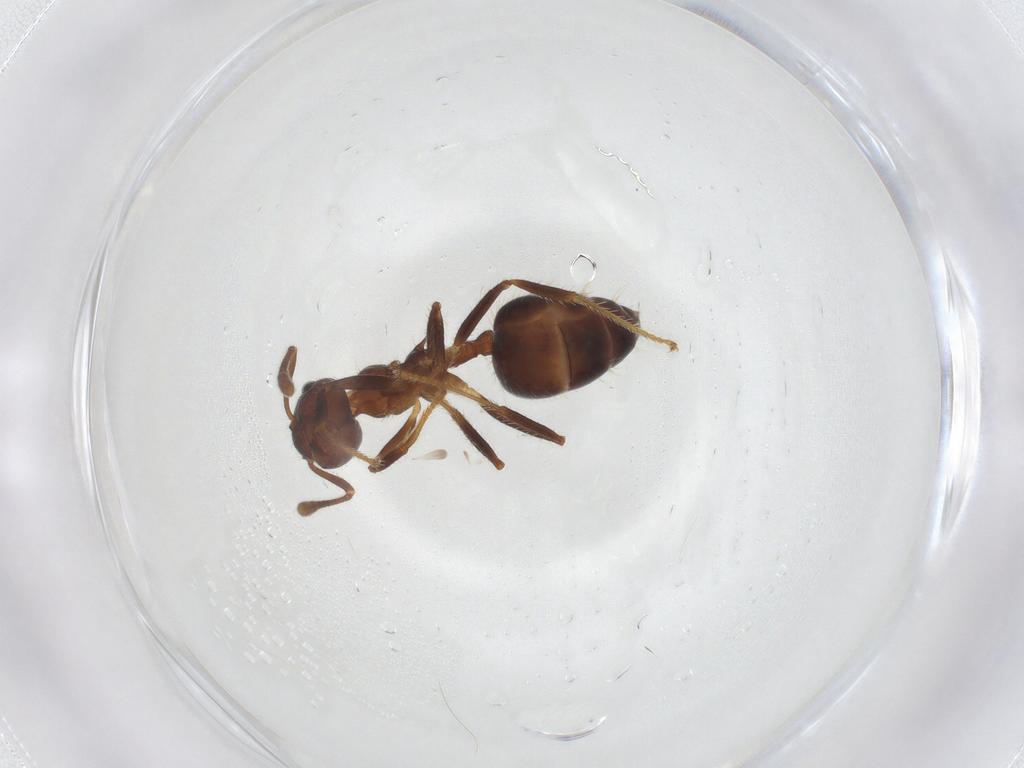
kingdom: Animalia
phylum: Arthropoda
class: Insecta
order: Hymenoptera
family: Formicidae
